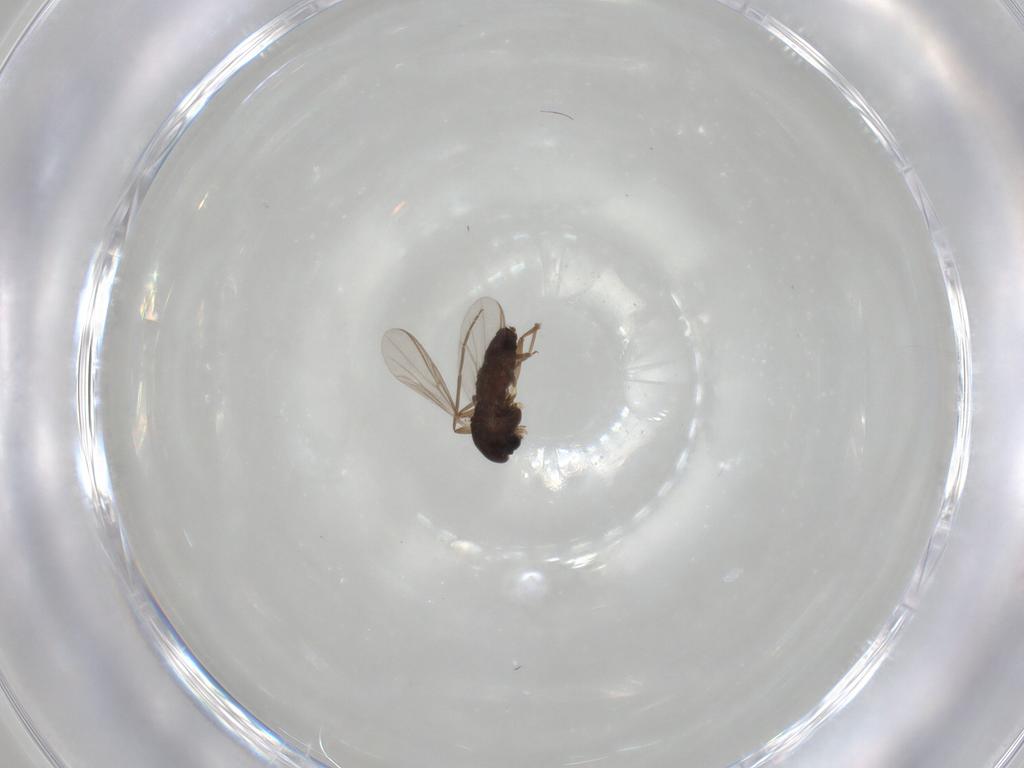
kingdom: Animalia
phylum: Arthropoda
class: Insecta
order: Diptera
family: Chironomidae
